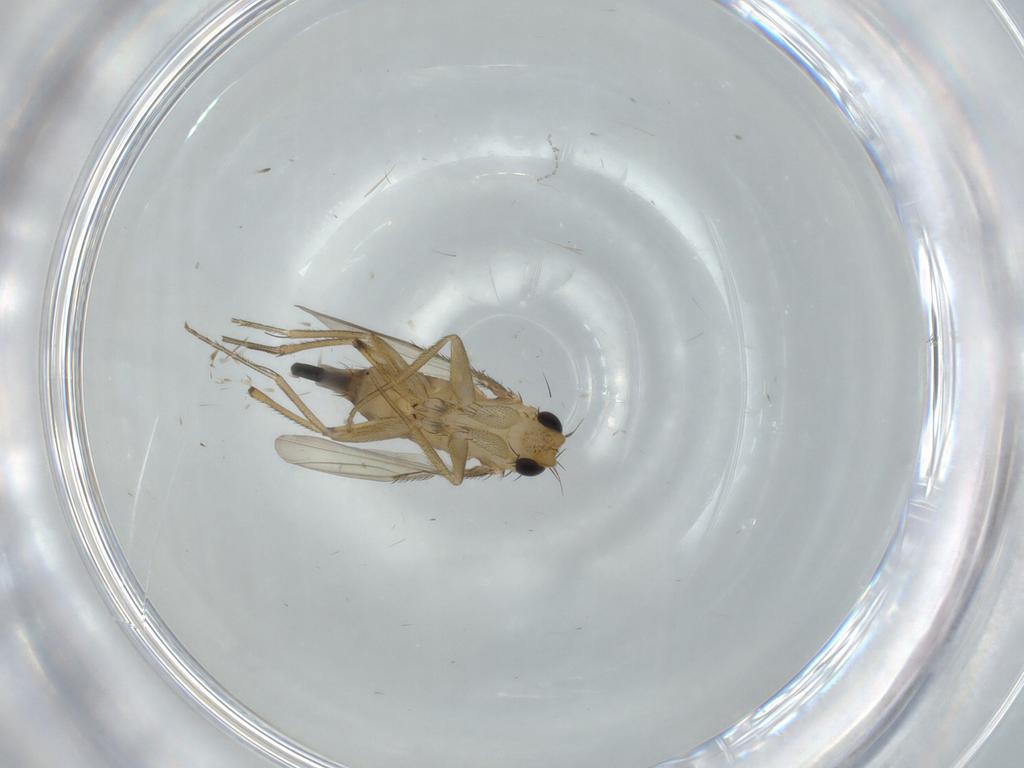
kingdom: Animalia
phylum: Arthropoda
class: Insecta
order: Diptera
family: Phoridae
